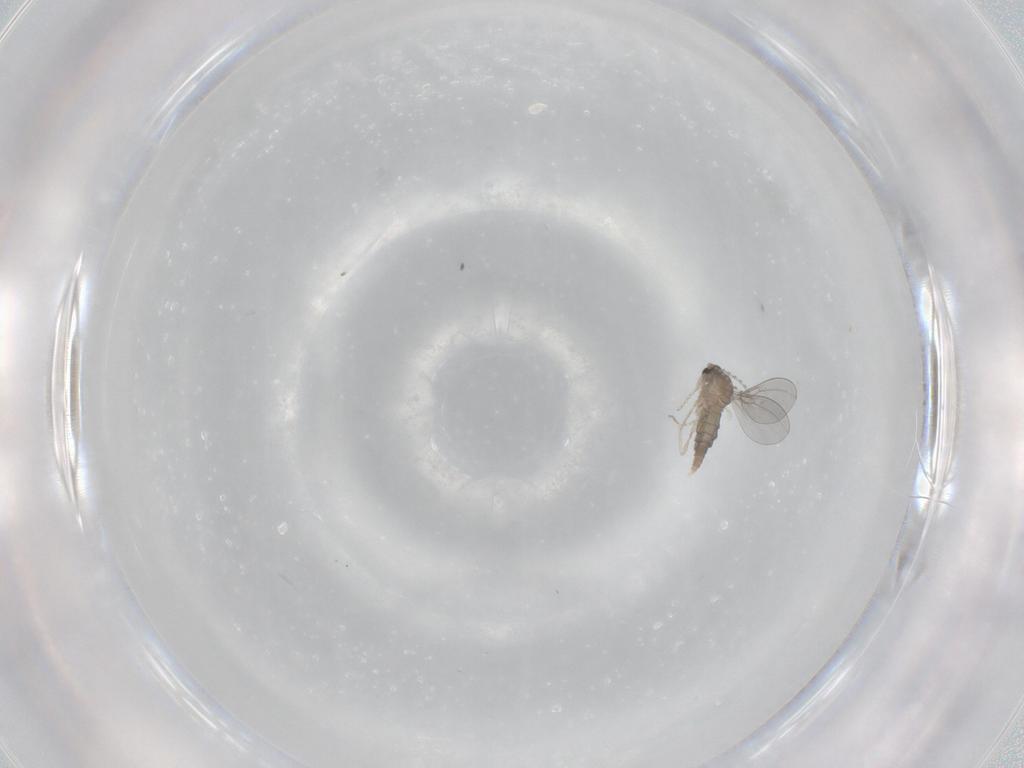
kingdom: Animalia
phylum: Arthropoda
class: Insecta
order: Diptera
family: Cecidomyiidae
